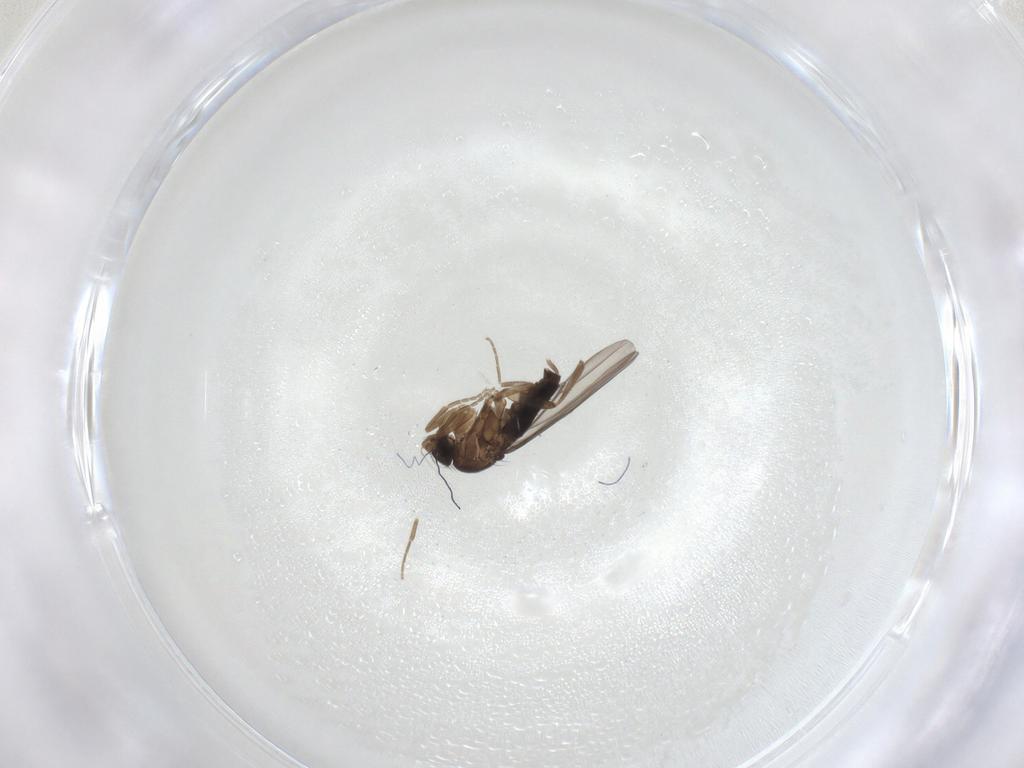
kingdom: Animalia
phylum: Arthropoda
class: Insecta
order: Diptera
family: Phoridae
